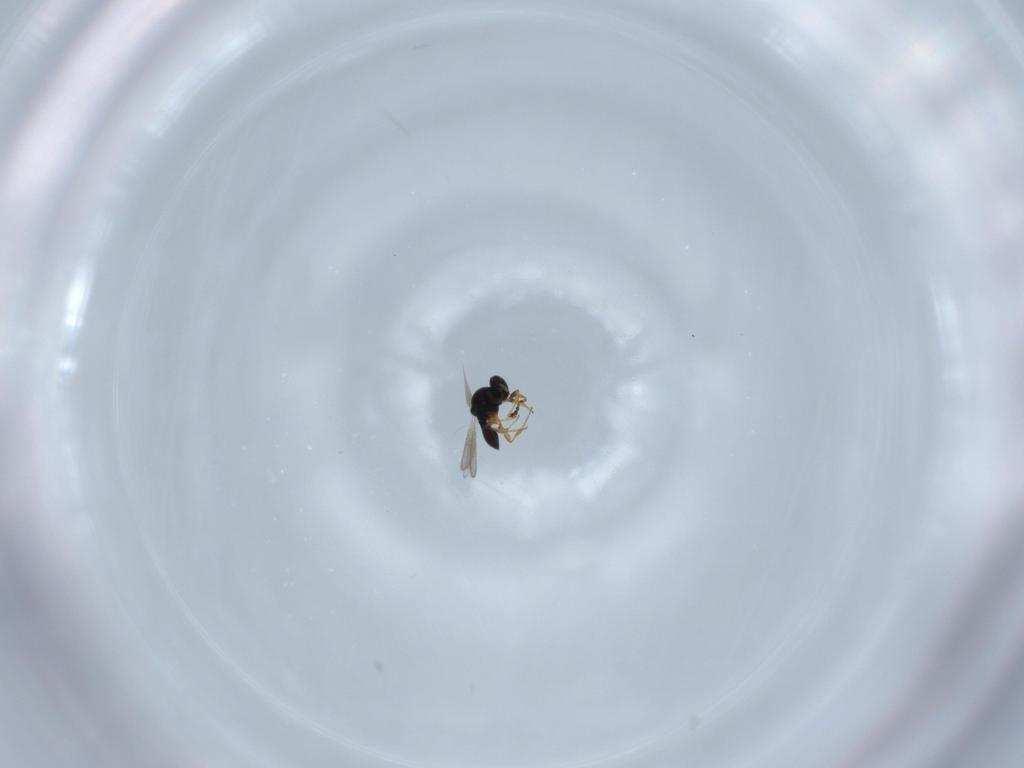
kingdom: Animalia
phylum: Arthropoda
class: Insecta
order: Hymenoptera
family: Platygastridae
